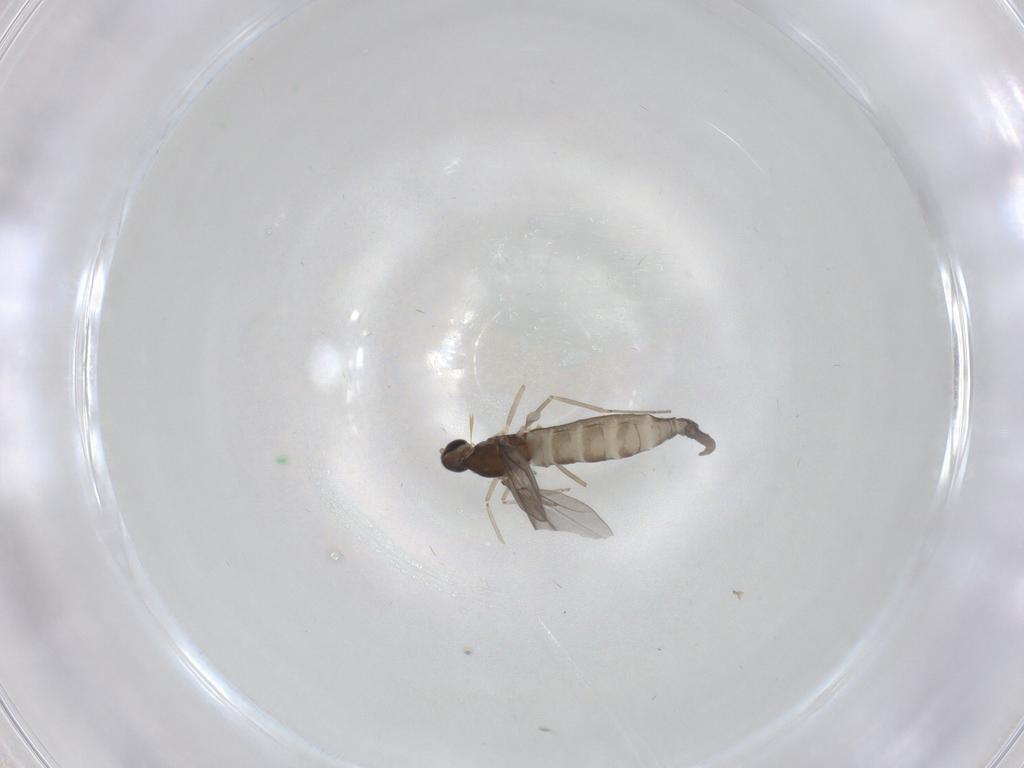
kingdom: Animalia
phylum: Arthropoda
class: Insecta
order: Diptera
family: Cecidomyiidae
